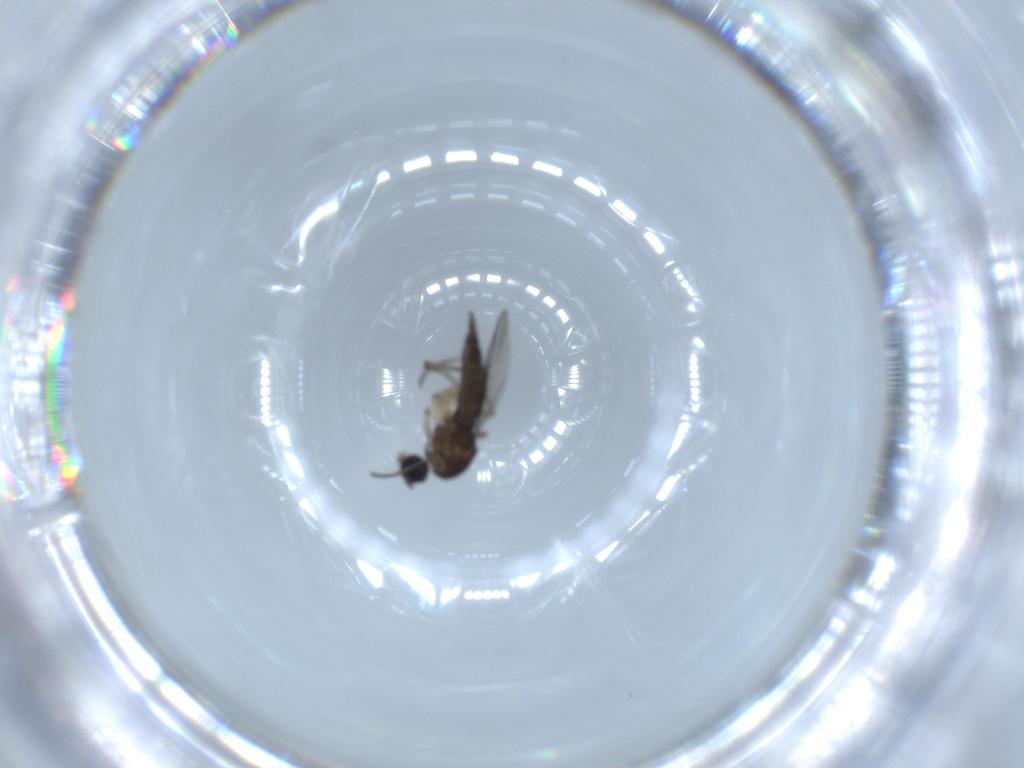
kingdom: Animalia
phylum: Arthropoda
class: Insecta
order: Diptera
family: Sciaridae
